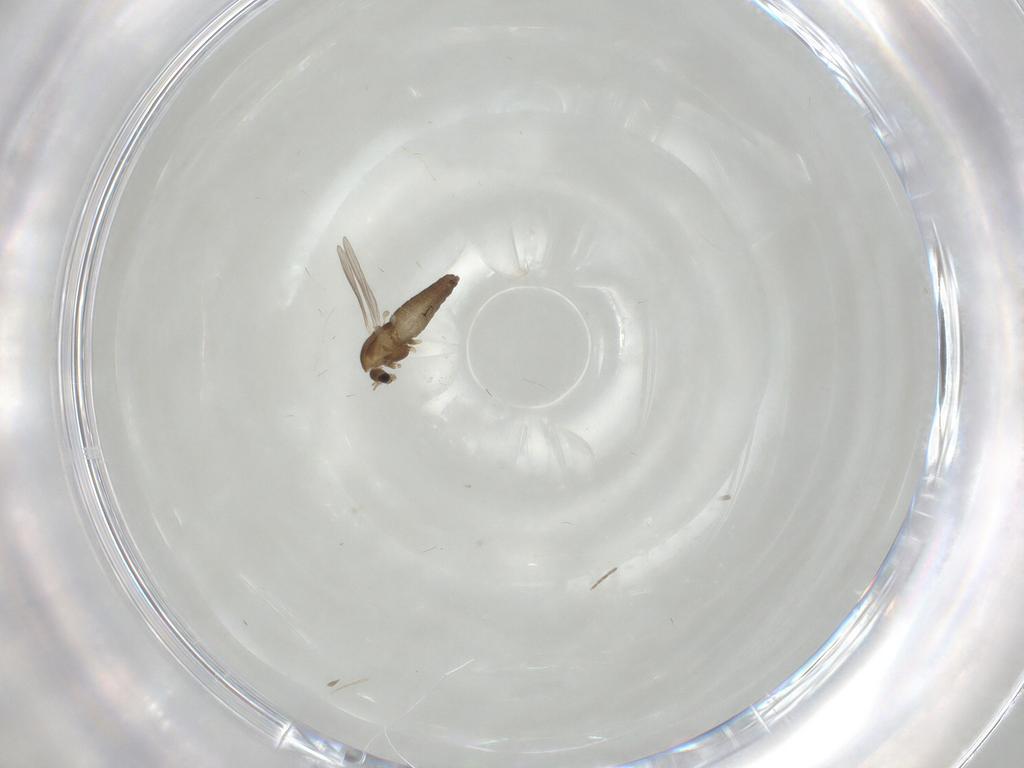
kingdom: Animalia
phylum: Arthropoda
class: Insecta
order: Diptera
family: Chironomidae
